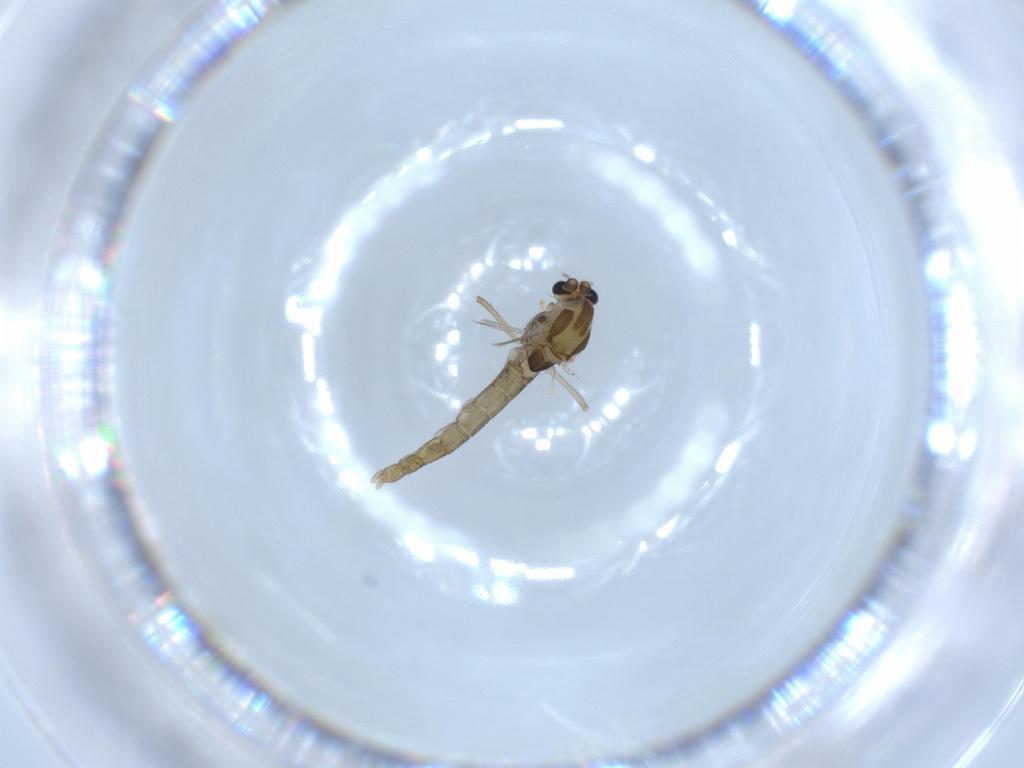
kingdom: Animalia
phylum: Arthropoda
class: Insecta
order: Diptera
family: Chironomidae
